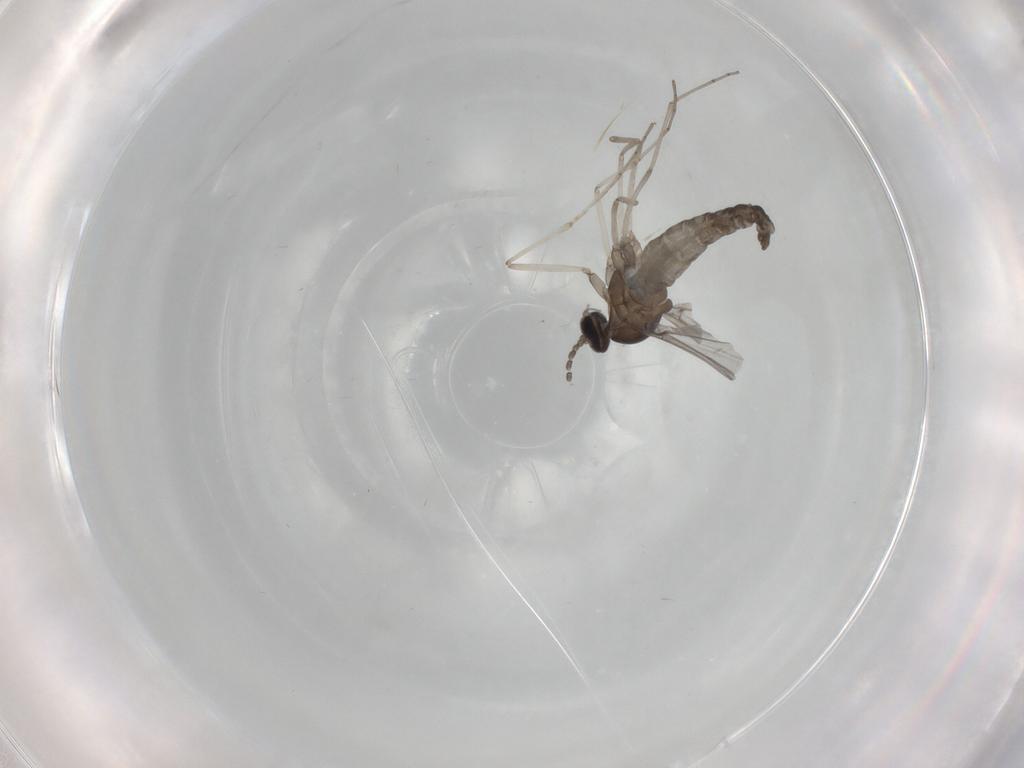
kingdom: Animalia
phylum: Arthropoda
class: Insecta
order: Diptera
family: Cecidomyiidae
